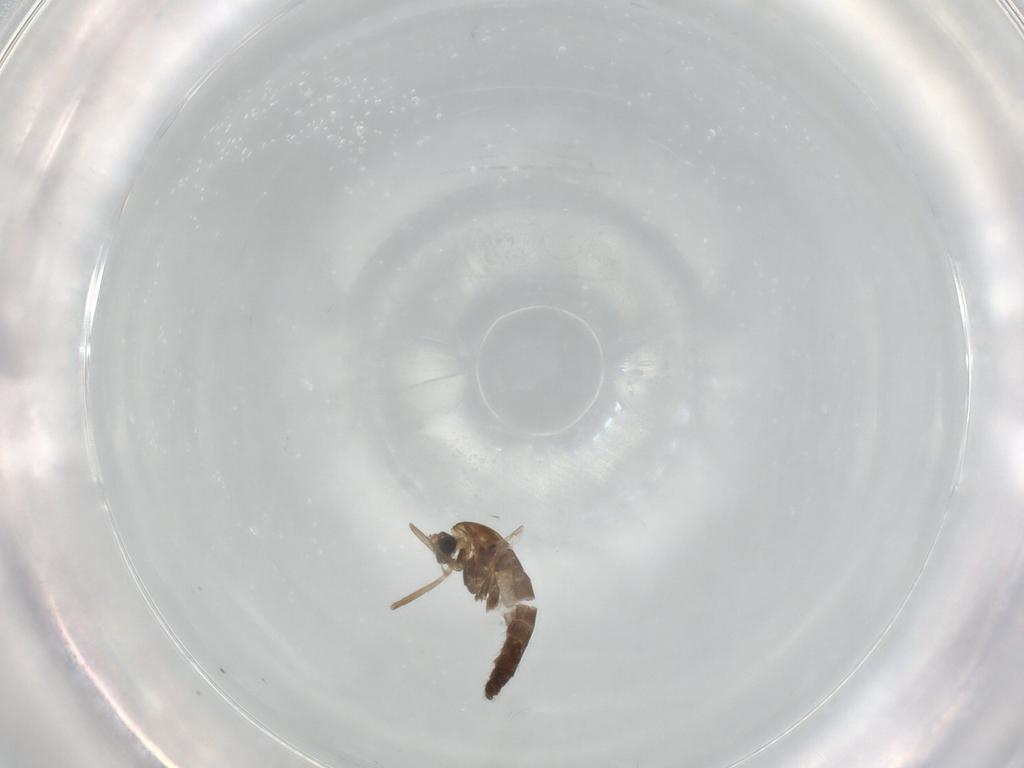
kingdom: Animalia
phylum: Arthropoda
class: Insecta
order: Diptera
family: Chironomidae
